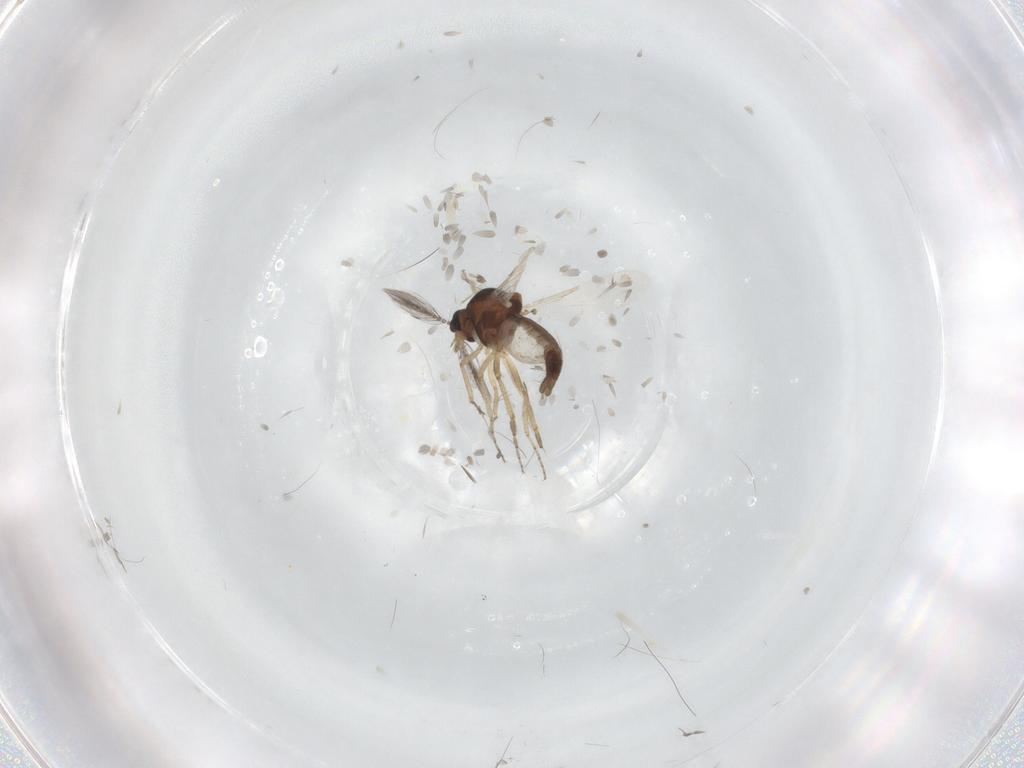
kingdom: Animalia
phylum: Arthropoda
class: Insecta
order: Diptera
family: Ceratopogonidae
